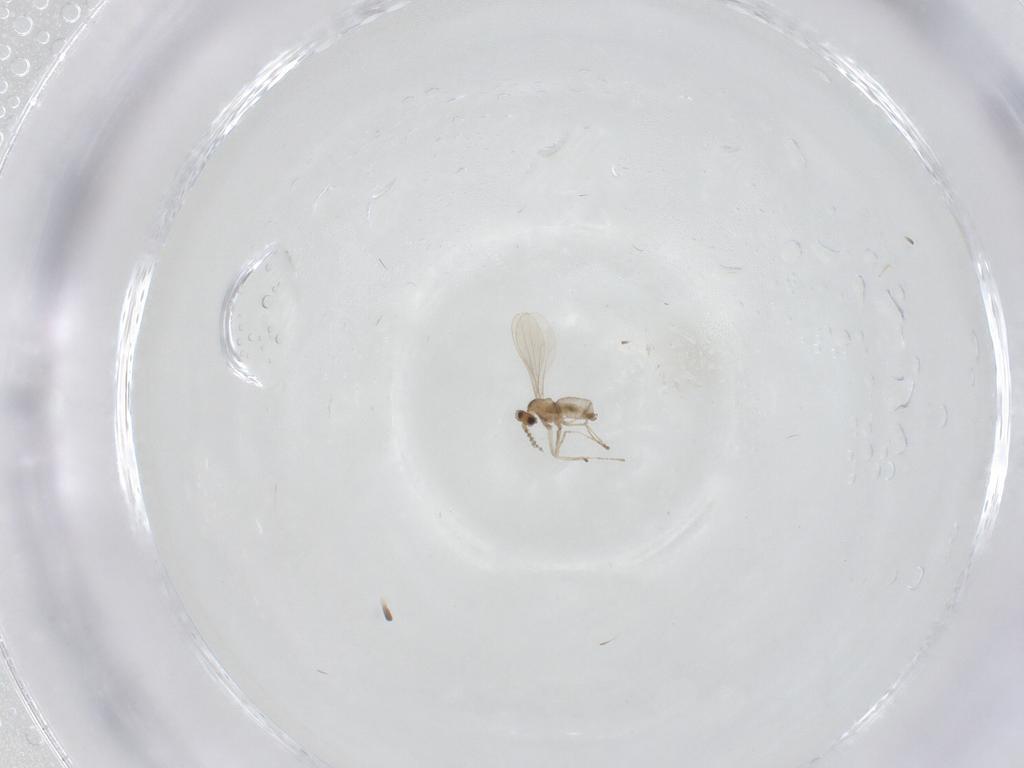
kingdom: Animalia
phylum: Arthropoda
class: Insecta
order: Diptera
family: Cecidomyiidae
